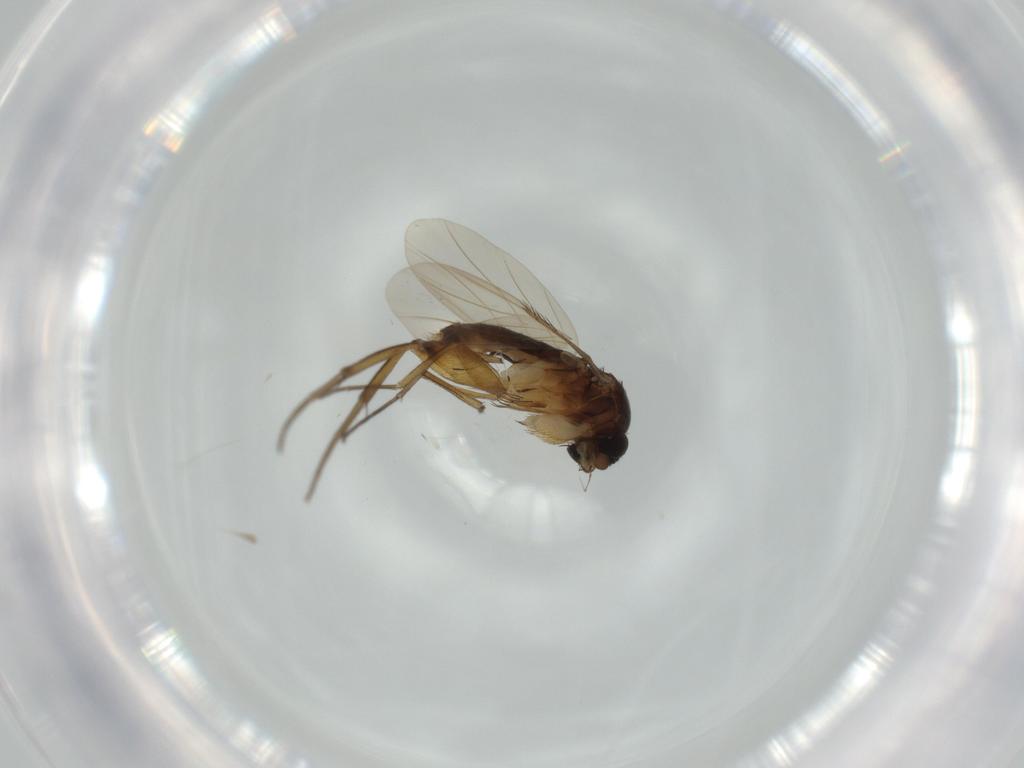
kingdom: Animalia
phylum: Arthropoda
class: Insecta
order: Diptera
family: Phoridae
